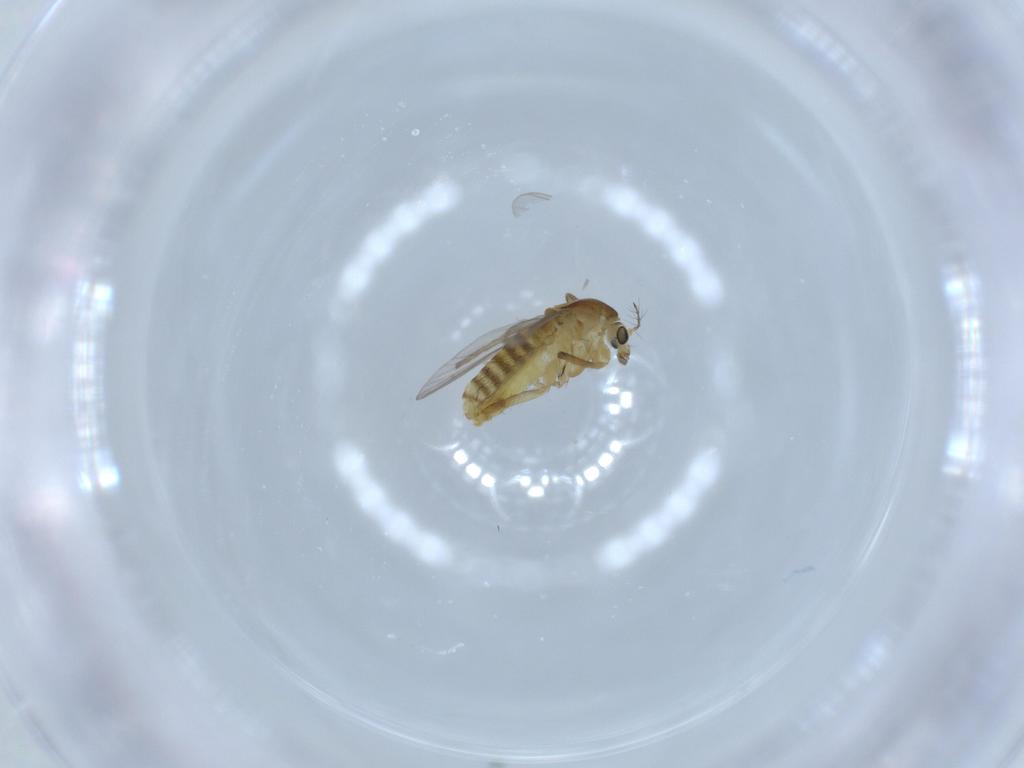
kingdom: Animalia
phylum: Arthropoda
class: Insecta
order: Diptera
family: Chironomidae
